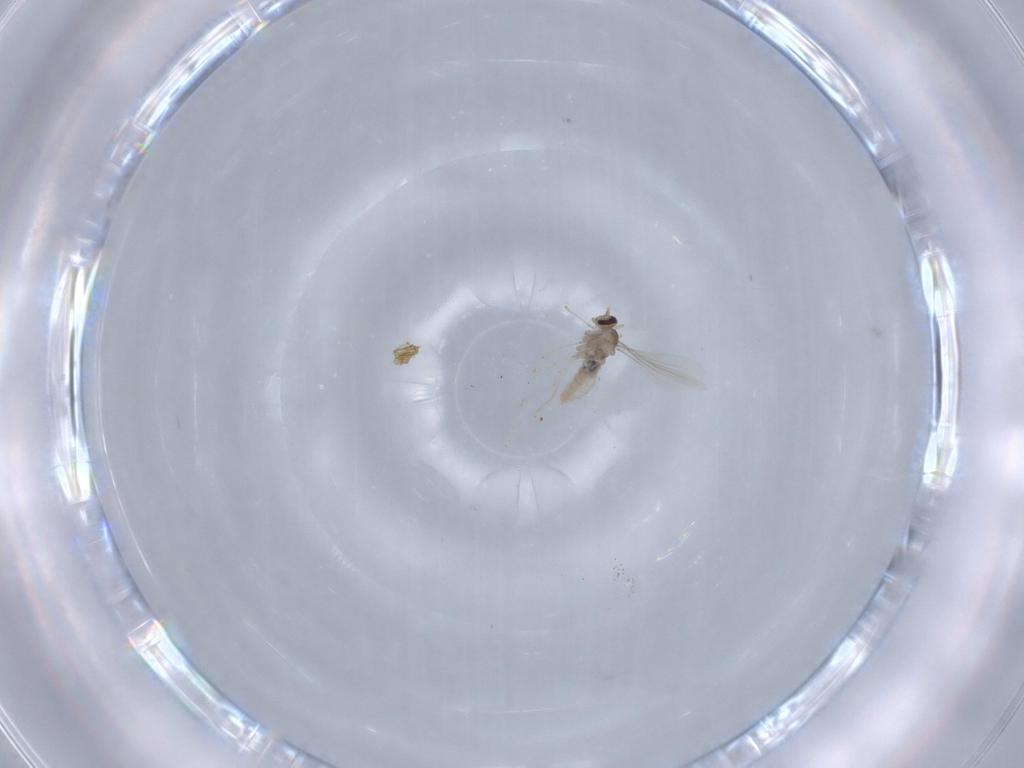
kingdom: Animalia
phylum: Arthropoda
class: Insecta
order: Diptera
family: Cecidomyiidae
